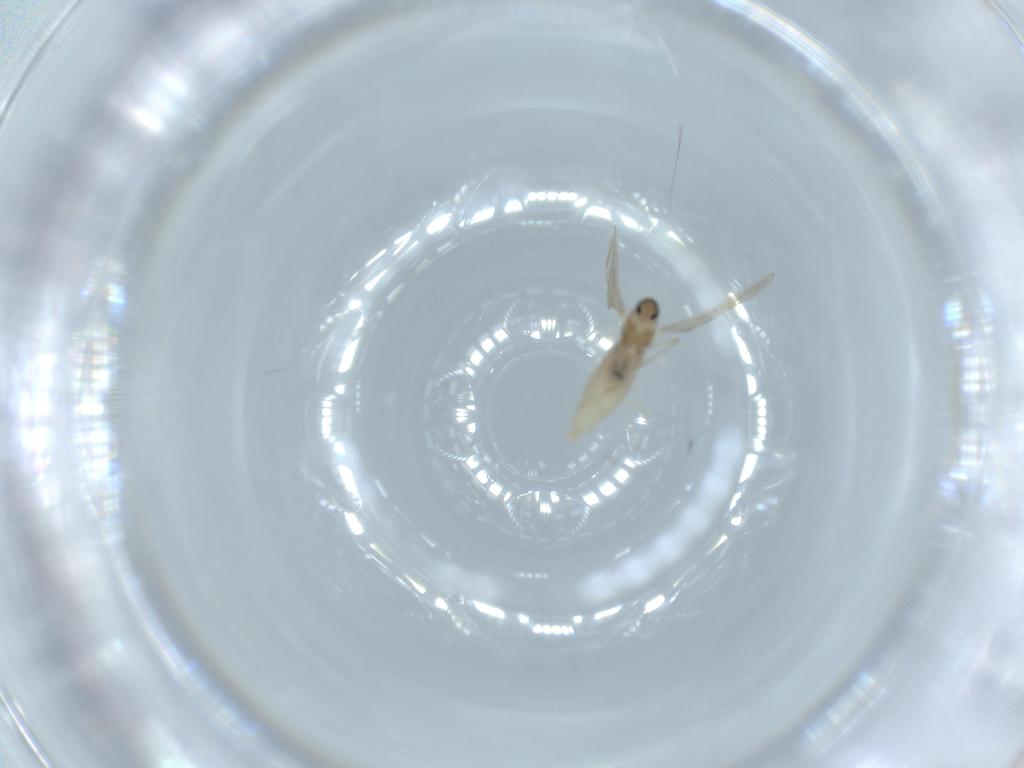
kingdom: Animalia
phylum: Arthropoda
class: Insecta
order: Diptera
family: Cecidomyiidae
